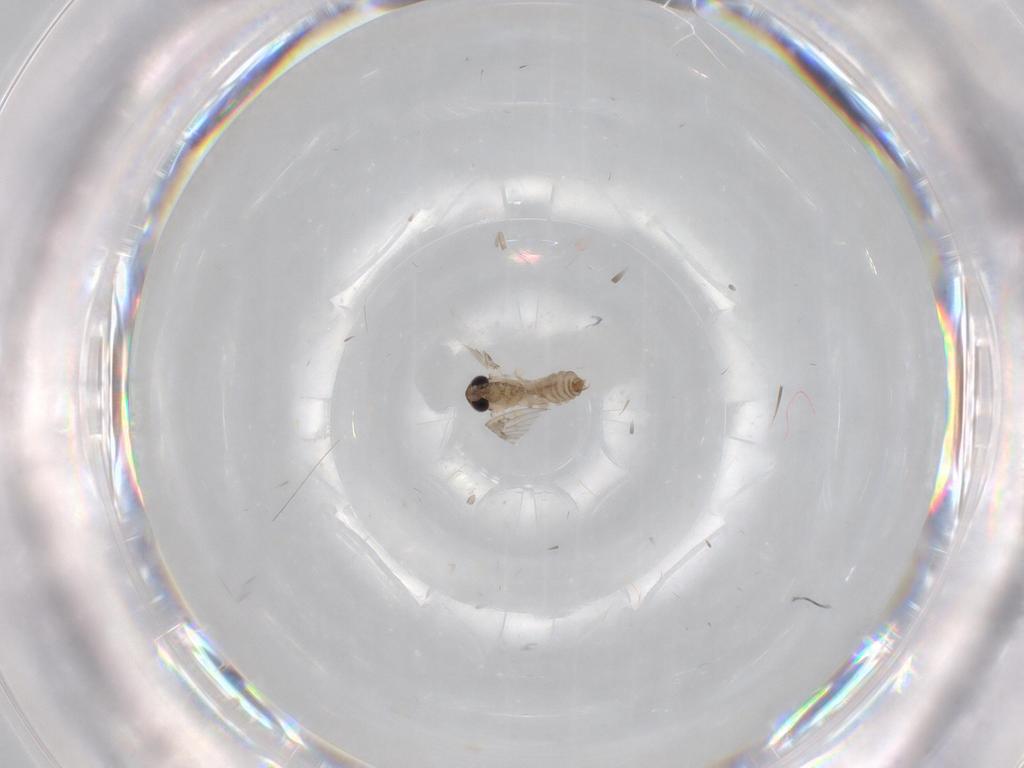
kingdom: Animalia
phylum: Arthropoda
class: Insecta
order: Diptera
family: Psychodidae
